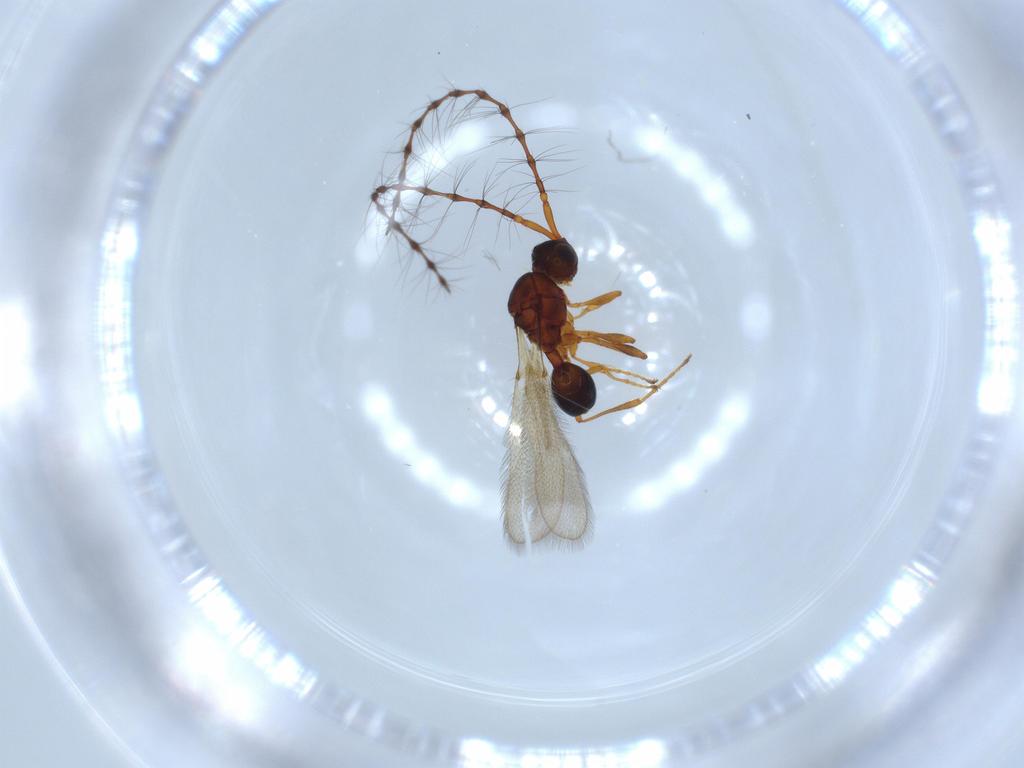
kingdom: Animalia
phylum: Arthropoda
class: Insecta
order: Hymenoptera
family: Diapriidae
